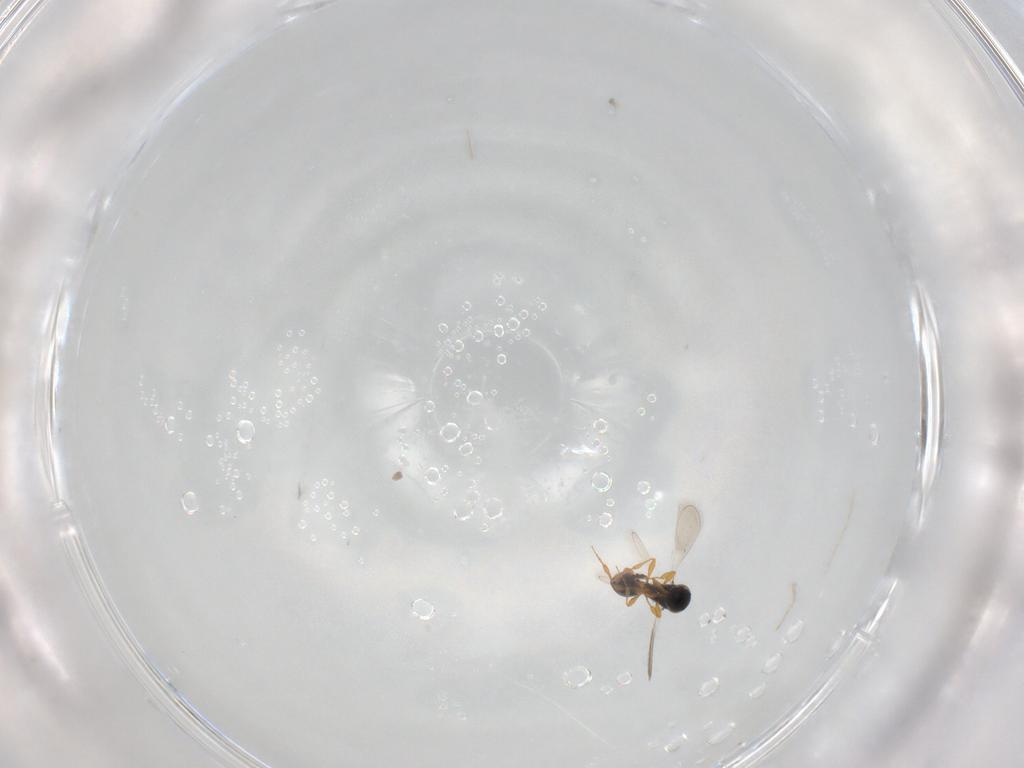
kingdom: Animalia
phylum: Arthropoda
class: Insecta
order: Hymenoptera
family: Platygastridae
